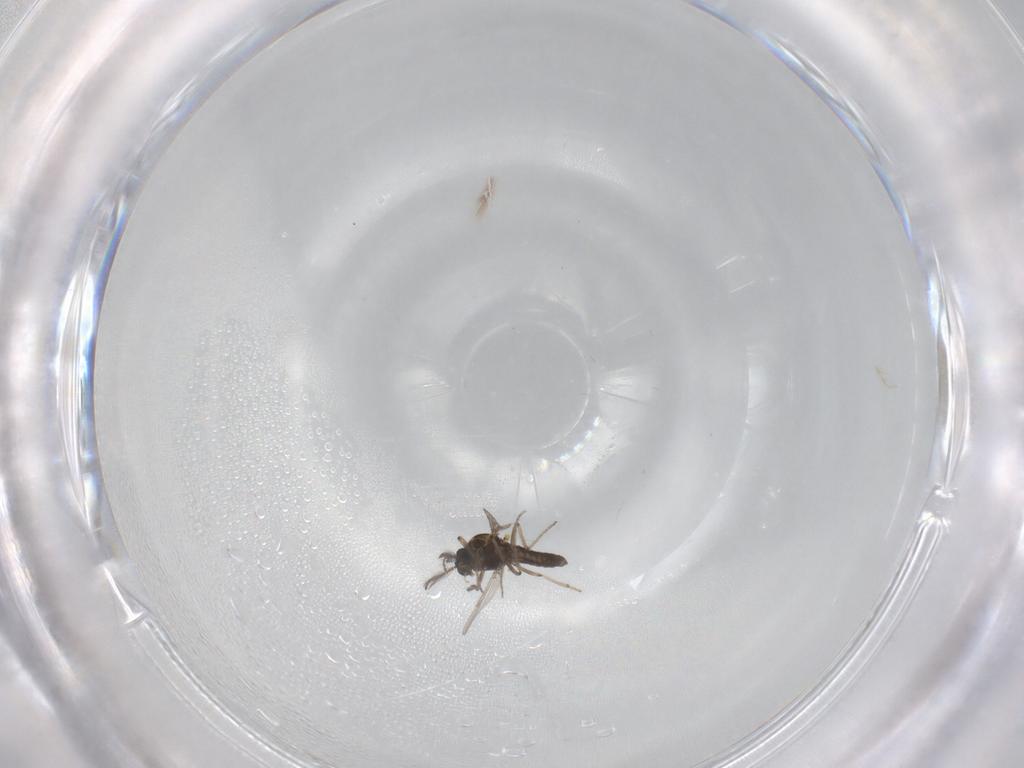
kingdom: Animalia
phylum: Arthropoda
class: Insecta
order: Diptera
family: Ceratopogonidae
